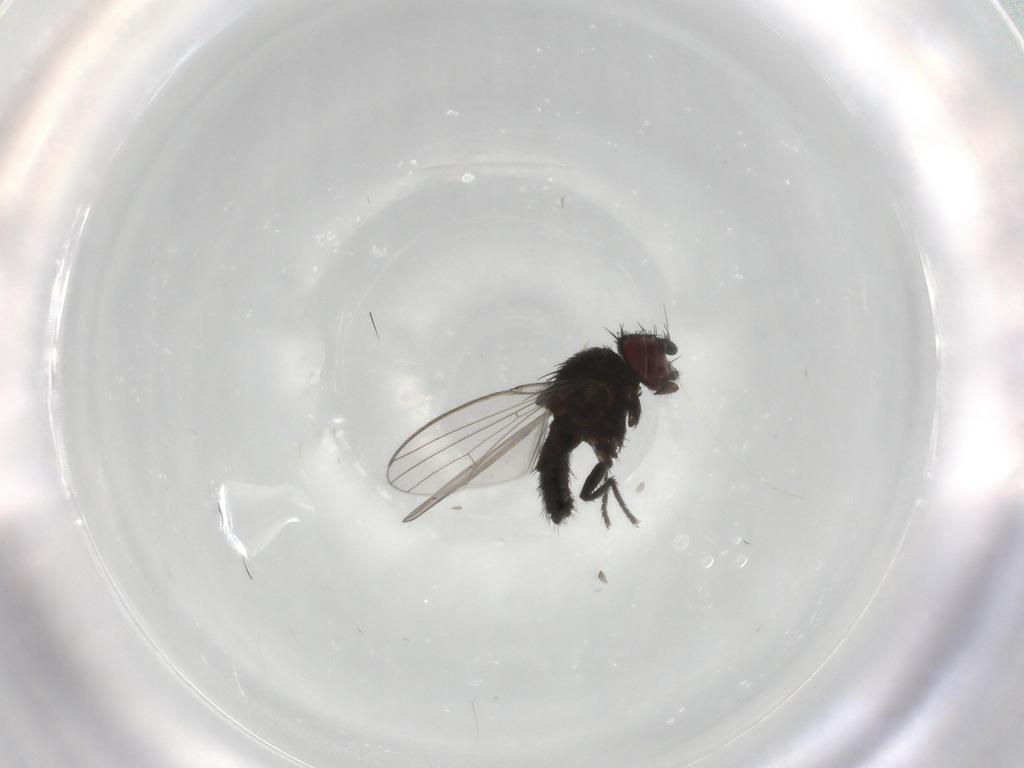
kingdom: Animalia
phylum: Arthropoda
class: Insecta
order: Diptera
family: Milichiidae
